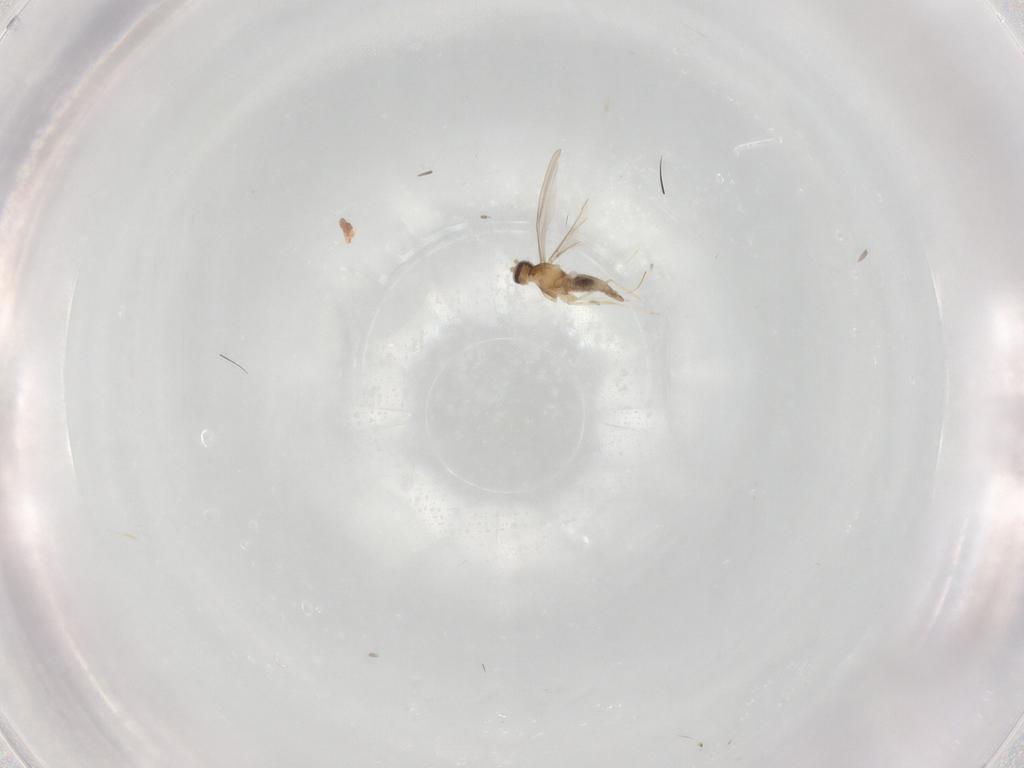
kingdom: Animalia
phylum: Arthropoda
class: Insecta
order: Diptera
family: Cecidomyiidae
